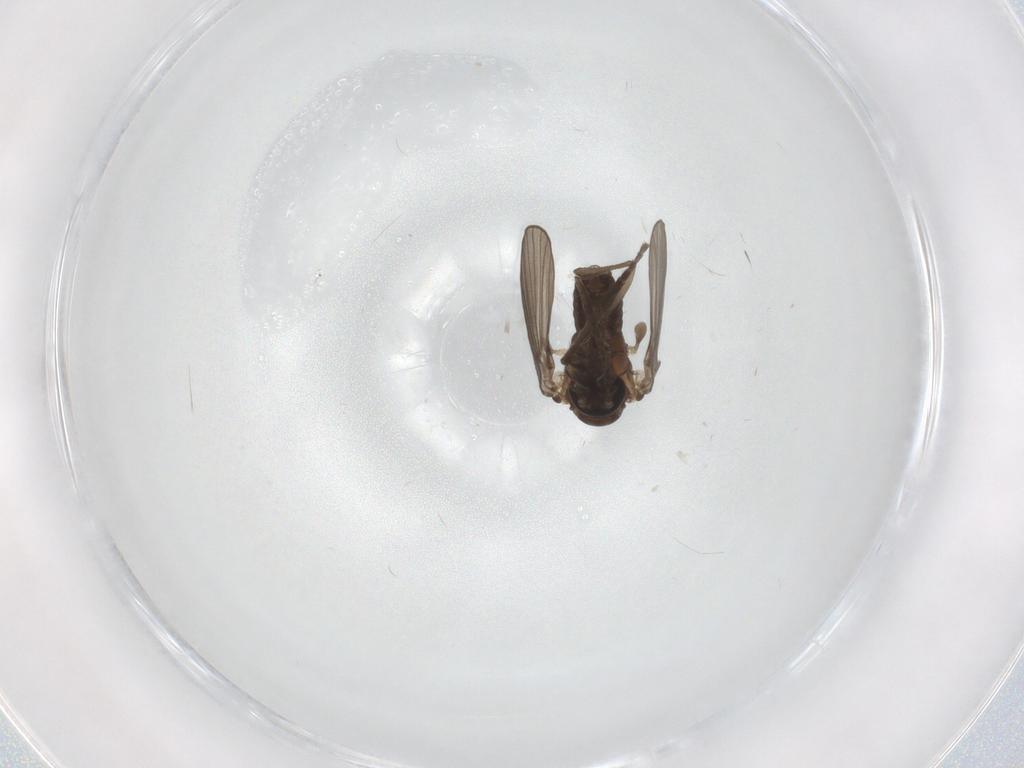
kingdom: Animalia
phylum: Arthropoda
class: Insecta
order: Diptera
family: Psychodidae
